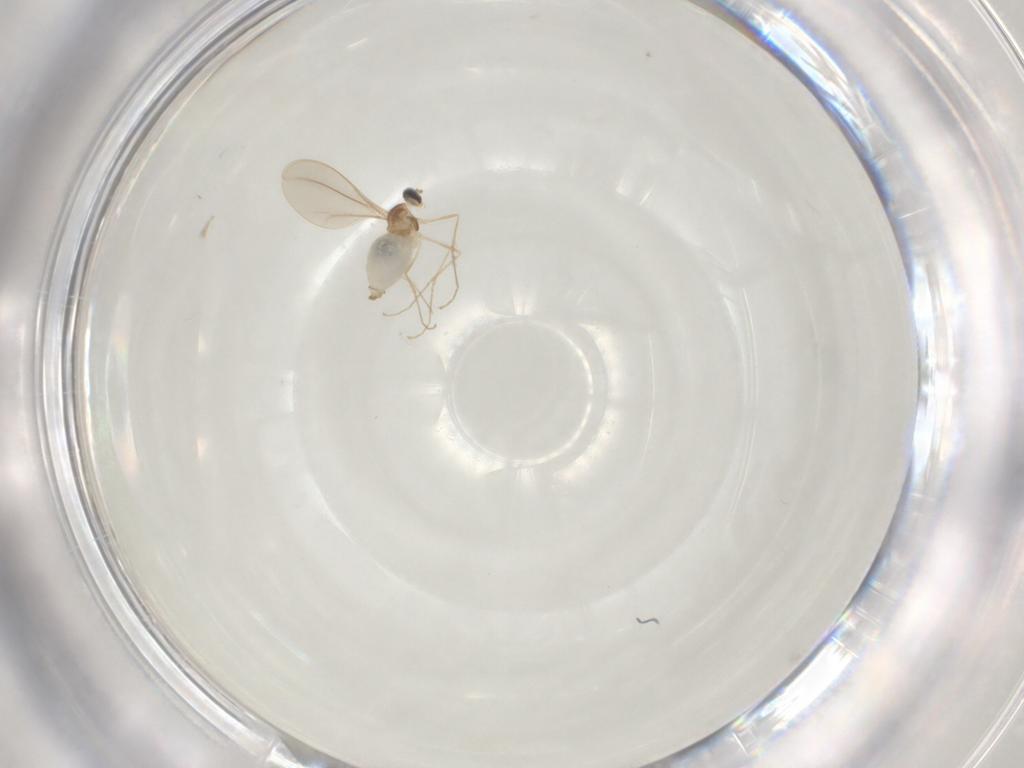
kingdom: Animalia
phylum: Arthropoda
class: Insecta
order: Diptera
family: Cecidomyiidae
